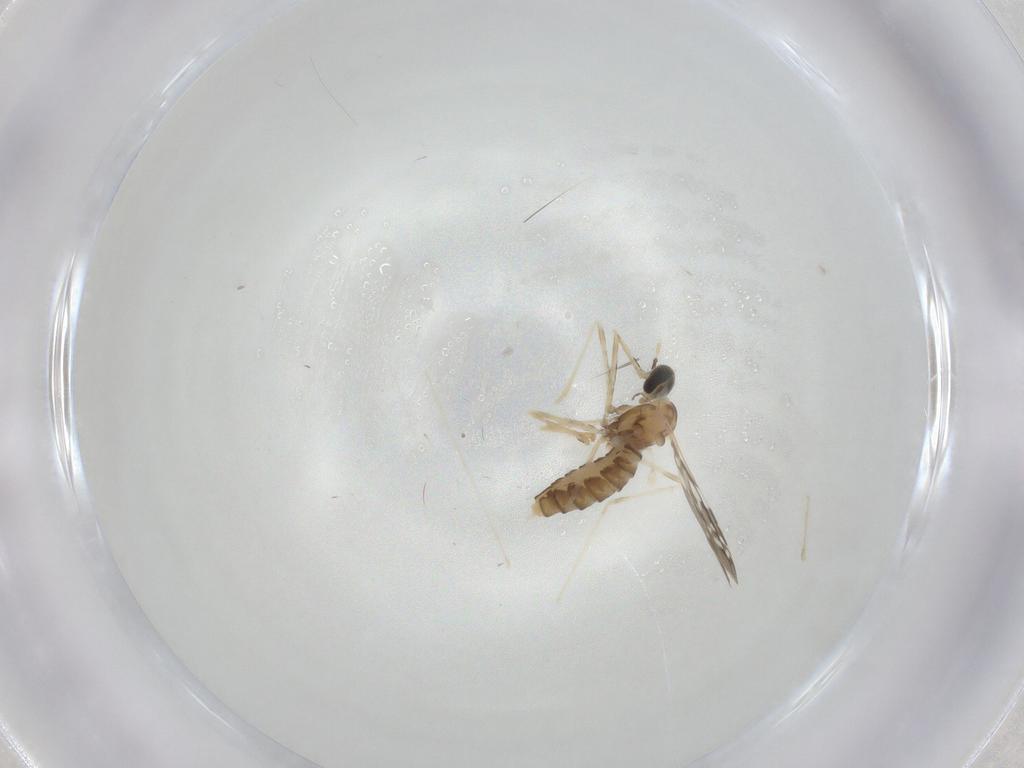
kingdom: Animalia
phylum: Arthropoda
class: Insecta
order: Diptera
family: Cecidomyiidae
